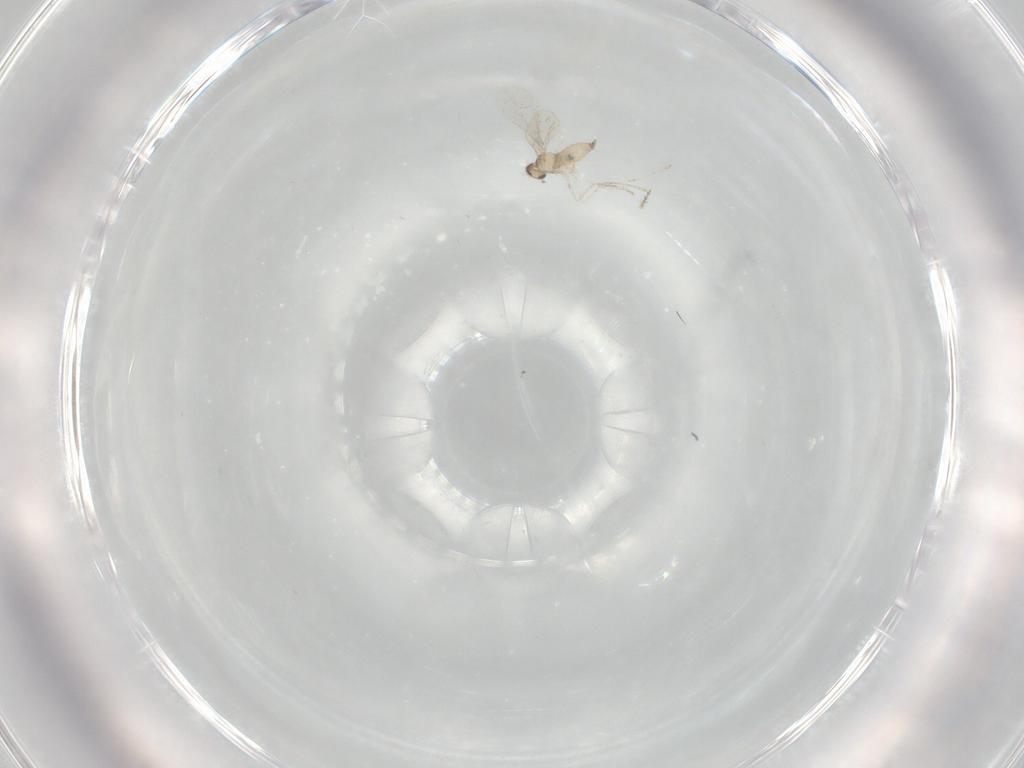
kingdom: Animalia
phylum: Arthropoda
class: Insecta
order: Diptera
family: Cecidomyiidae
